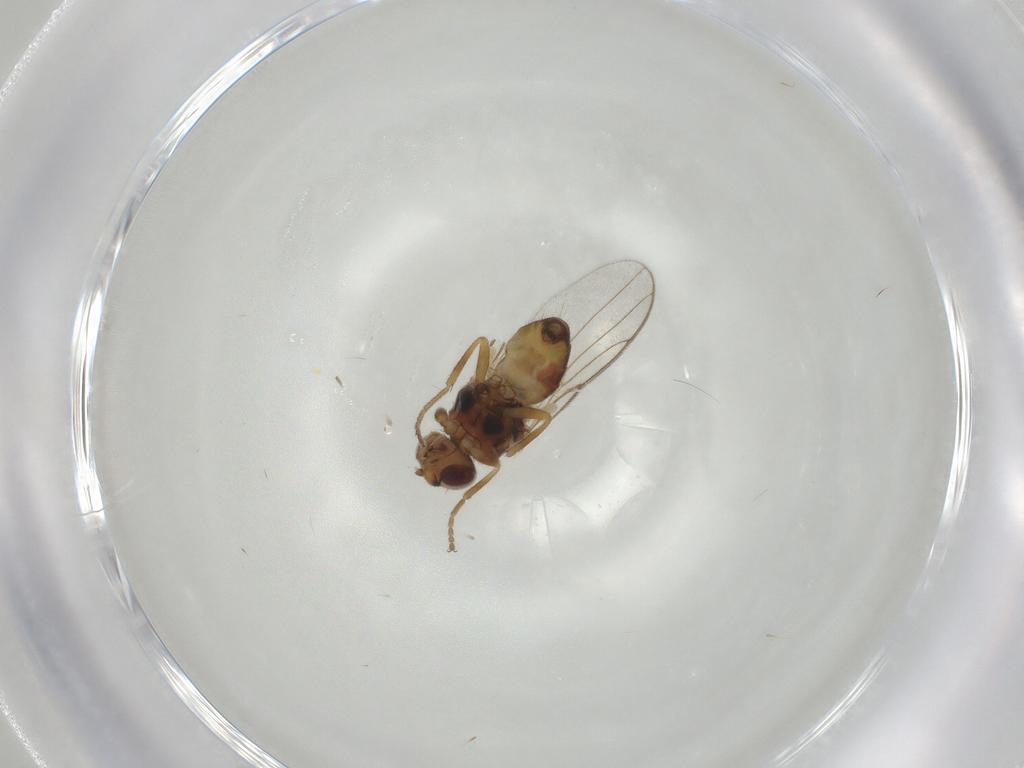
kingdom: Animalia
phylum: Arthropoda
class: Insecta
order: Diptera
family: Chloropidae
